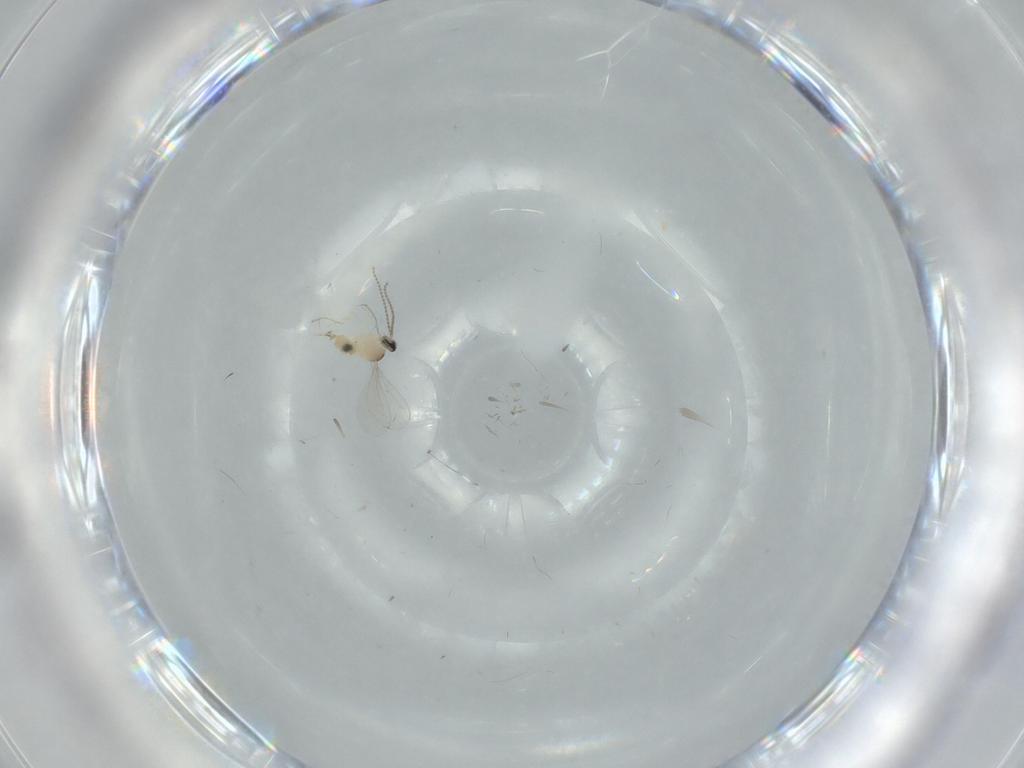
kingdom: Animalia
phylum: Arthropoda
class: Insecta
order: Diptera
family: Cecidomyiidae
